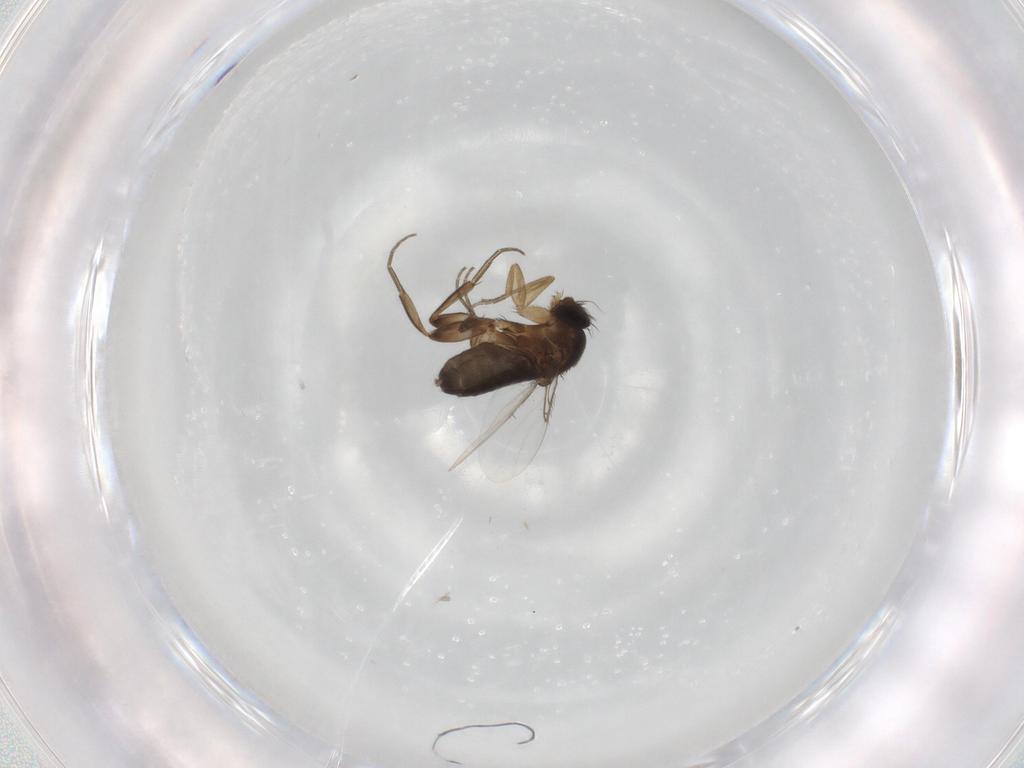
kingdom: Animalia
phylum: Arthropoda
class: Insecta
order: Diptera
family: Phoridae
